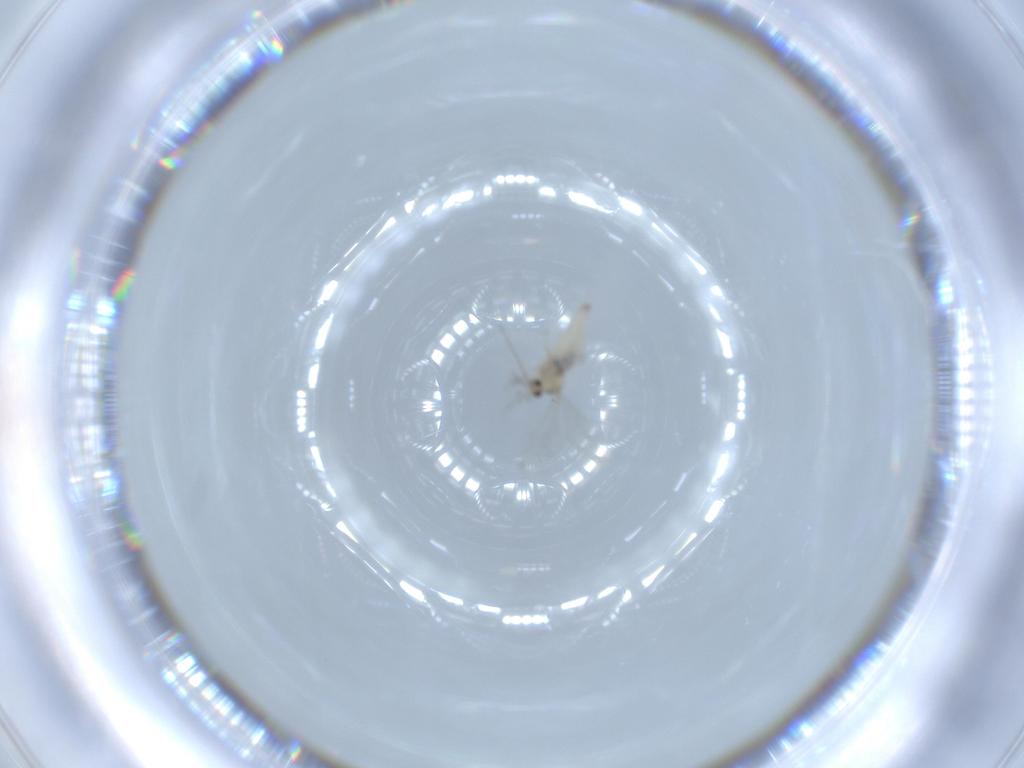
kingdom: Animalia
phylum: Arthropoda
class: Insecta
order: Diptera
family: Cecidomyiidae
